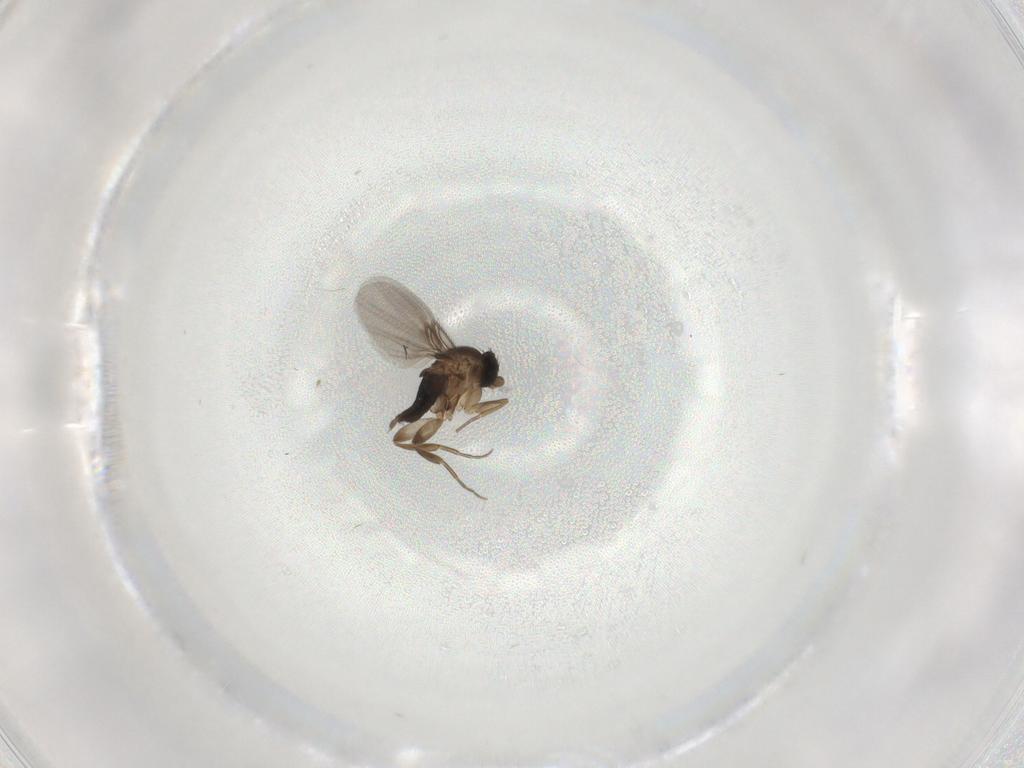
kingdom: Animalia
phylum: Arthropoda
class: Insecta
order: Diptera
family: Phoridae
